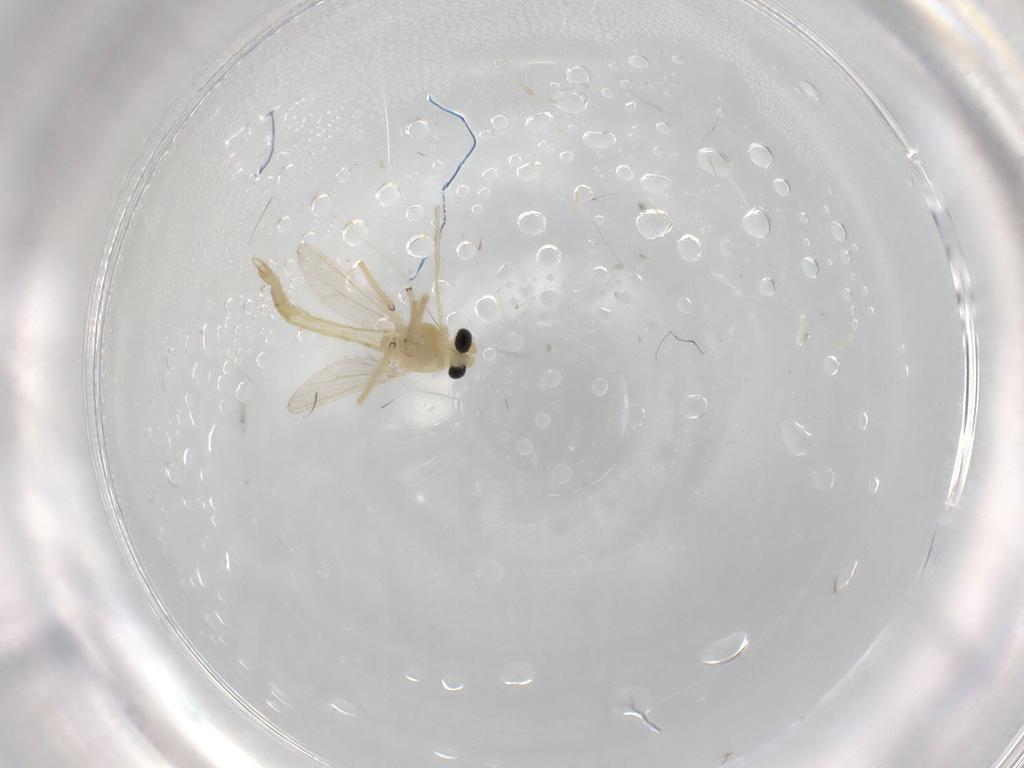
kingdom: Animalia
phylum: Arthropoda
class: Insecta
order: Diptera
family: Chironomidae
